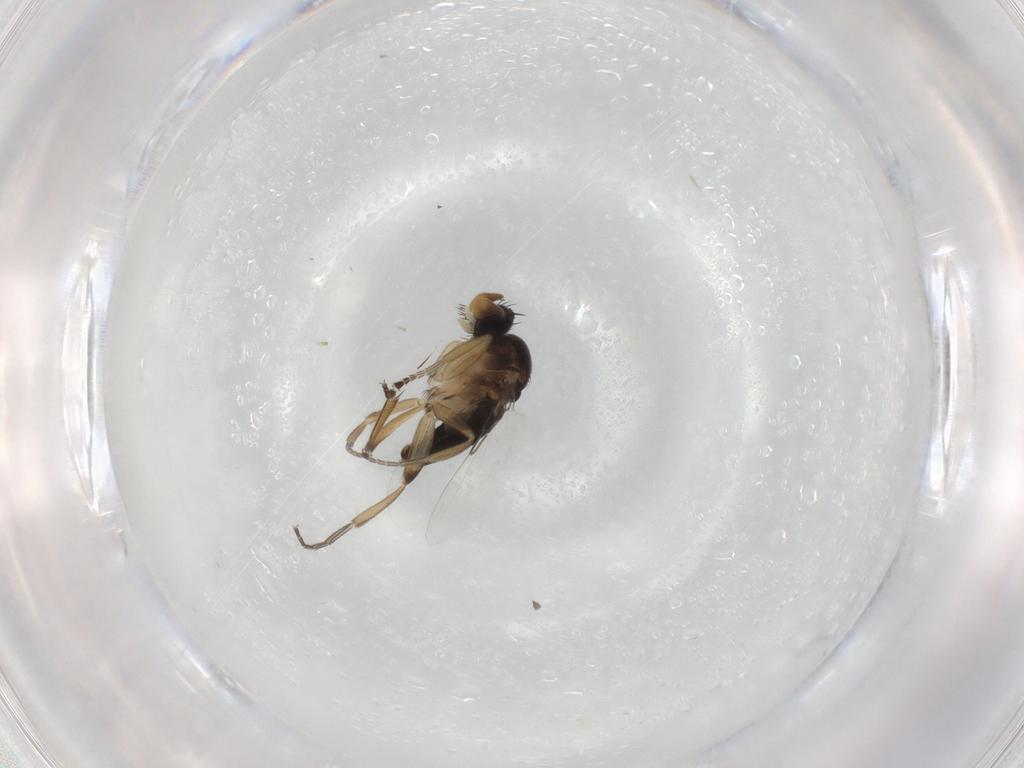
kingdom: Animalia
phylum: Arthropoda
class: Insecta
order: Diptera
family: Phoridae
